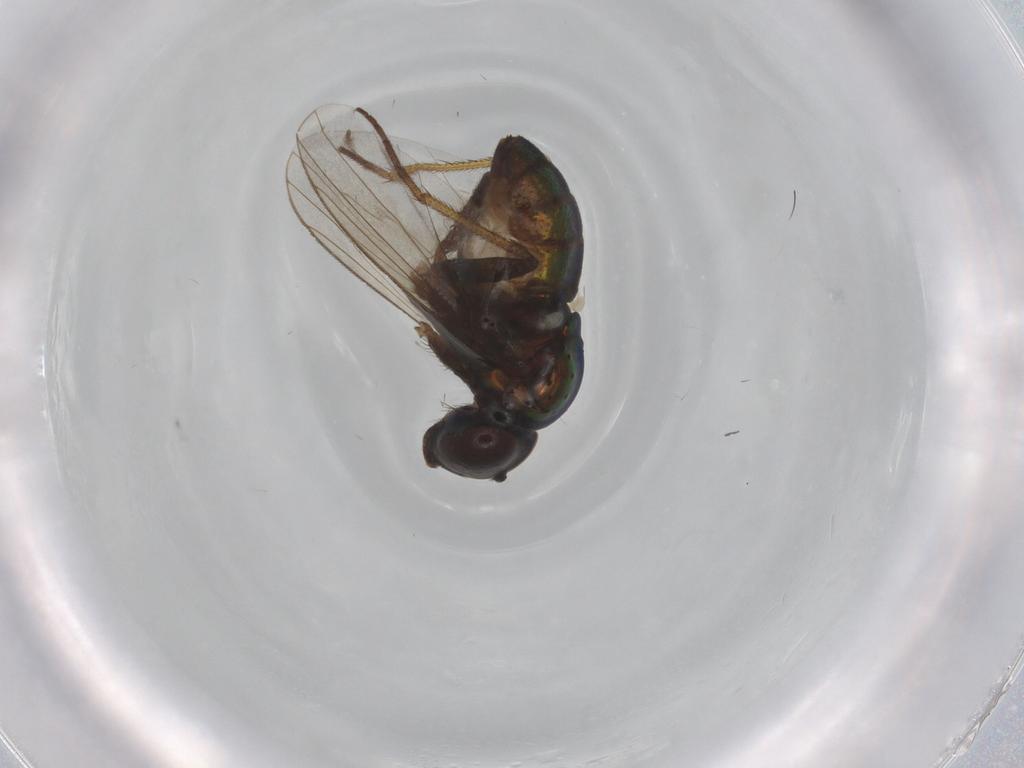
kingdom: Animalia
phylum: Arthropoda
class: Insecta
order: Diptera
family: Dolichopodidae
